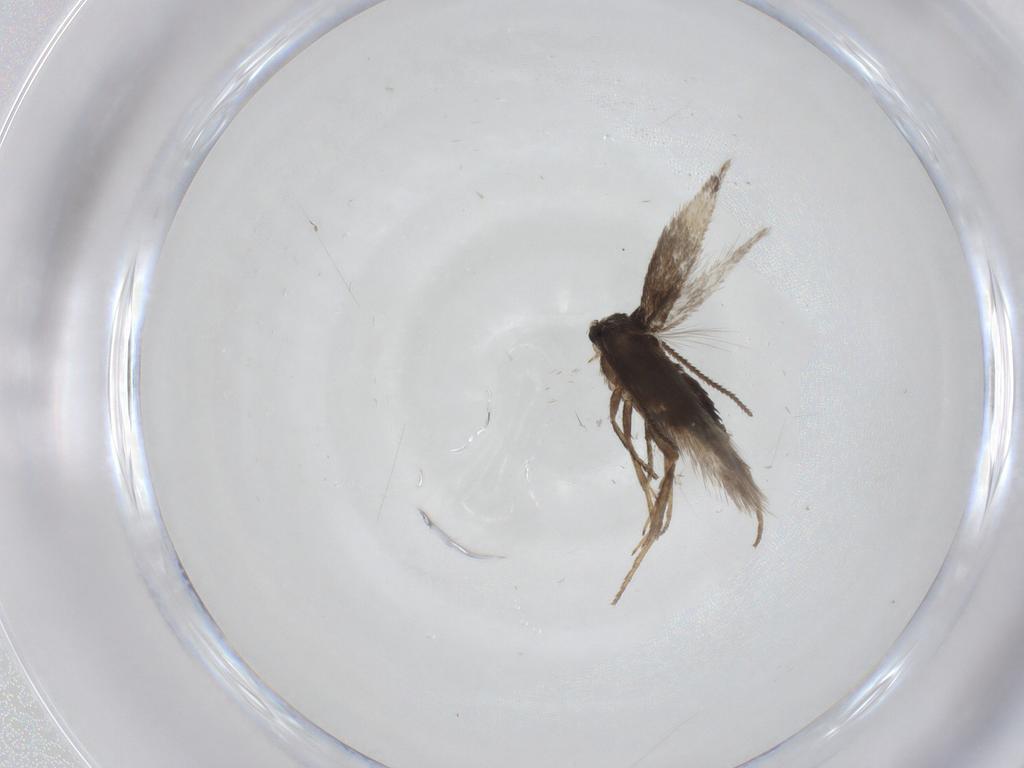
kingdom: Animalia
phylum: Arthropoda
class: Insecta
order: Lepidoptera
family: Nepticulidae
